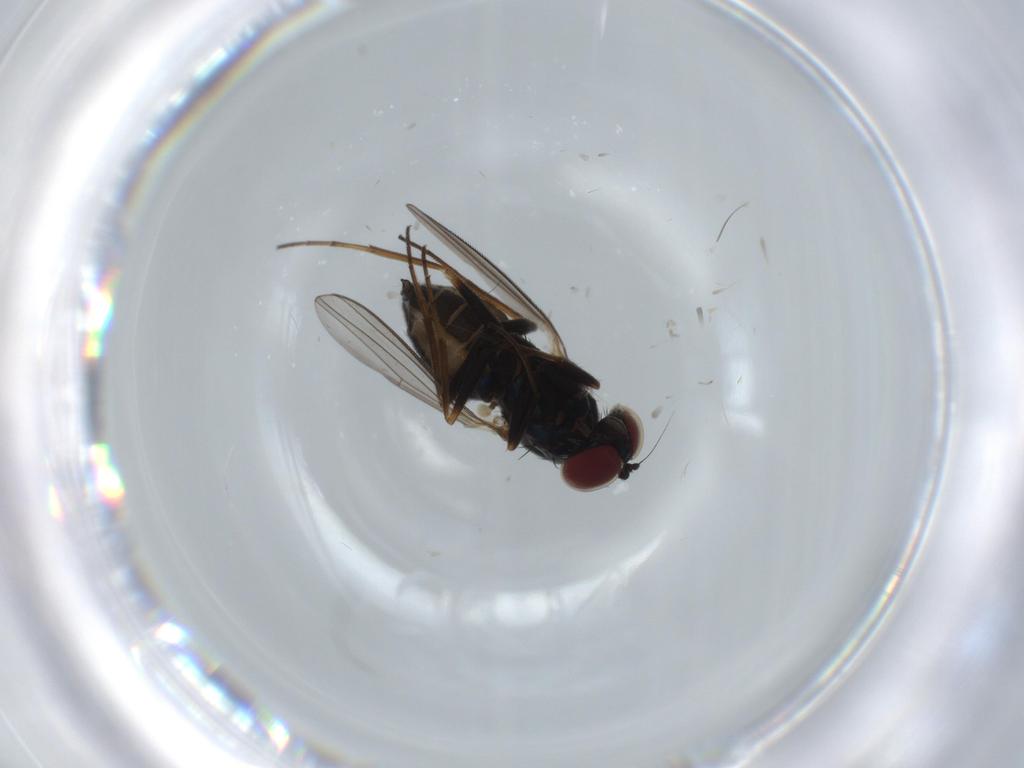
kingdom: Animalia
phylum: Arthropoda
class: Insecta
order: Diptera
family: Dolichopodidae
